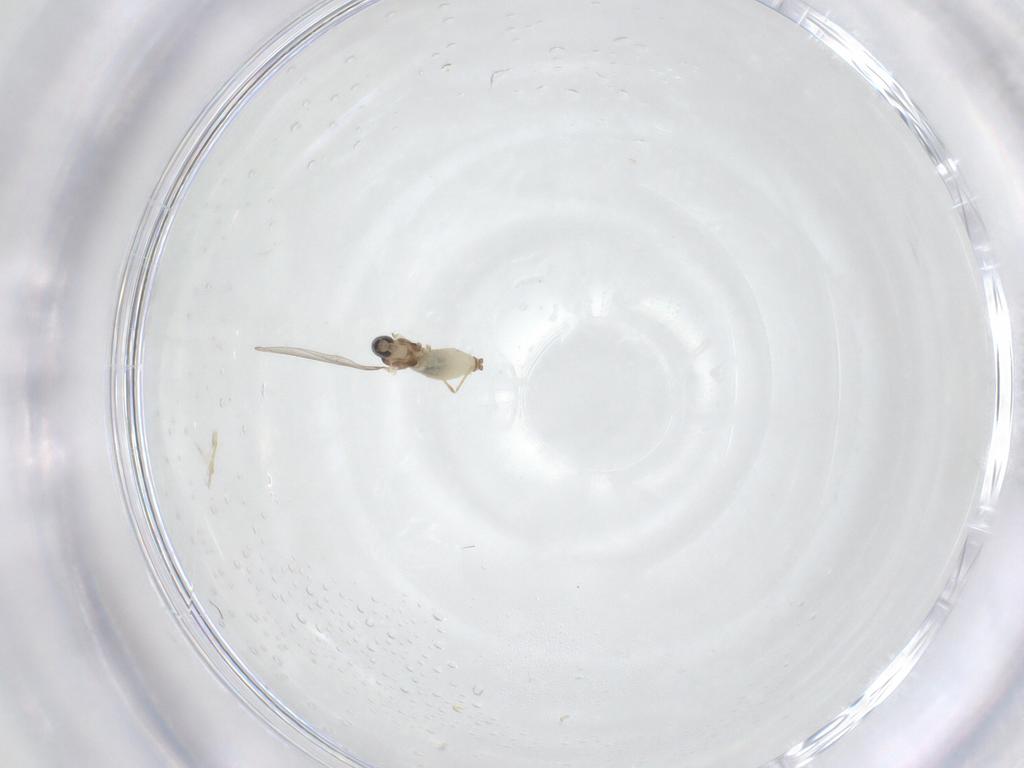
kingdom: Animalia
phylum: Arthropoda
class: Insecta
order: Diptera
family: Cecidomyiidae
